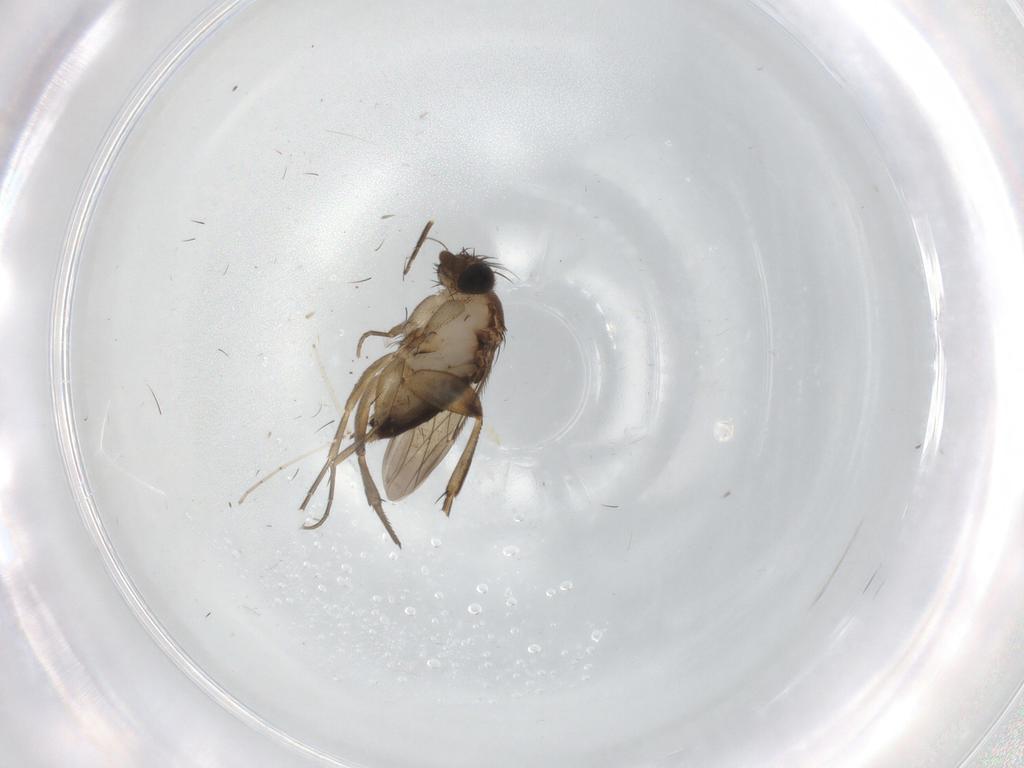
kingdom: Animalia
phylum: Arthropoda
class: Insecta
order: Diptera
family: Phoridae
